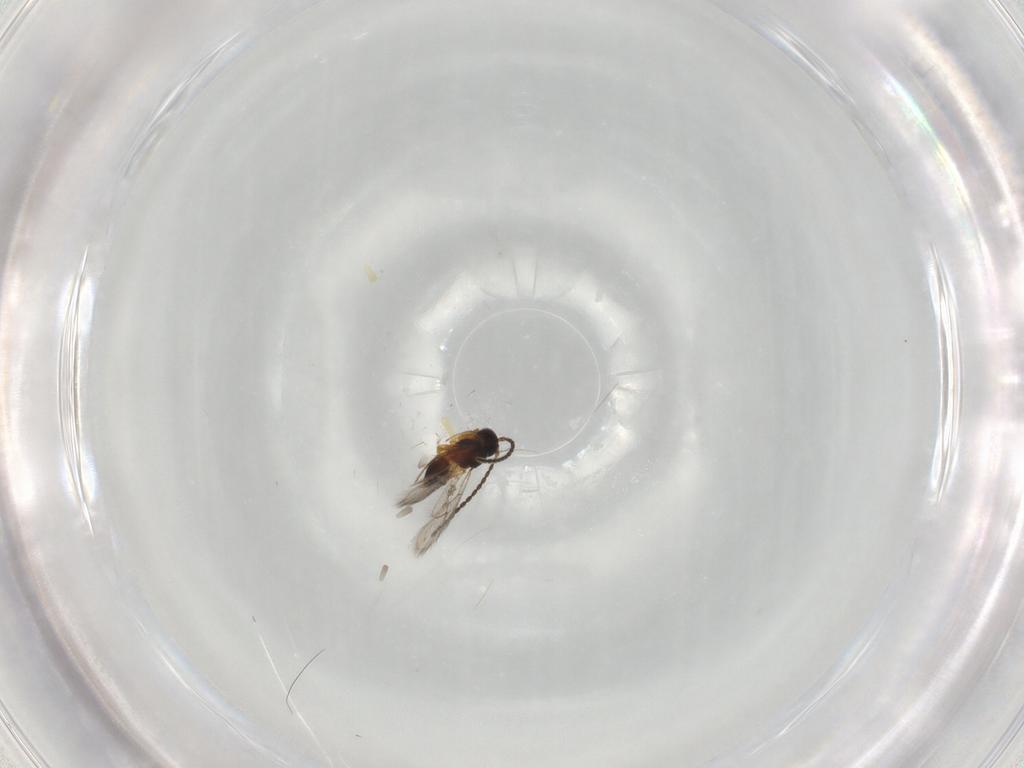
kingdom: Animalia
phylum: Arthropoda
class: Insecta
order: Hymenoptera
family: Figitidae
